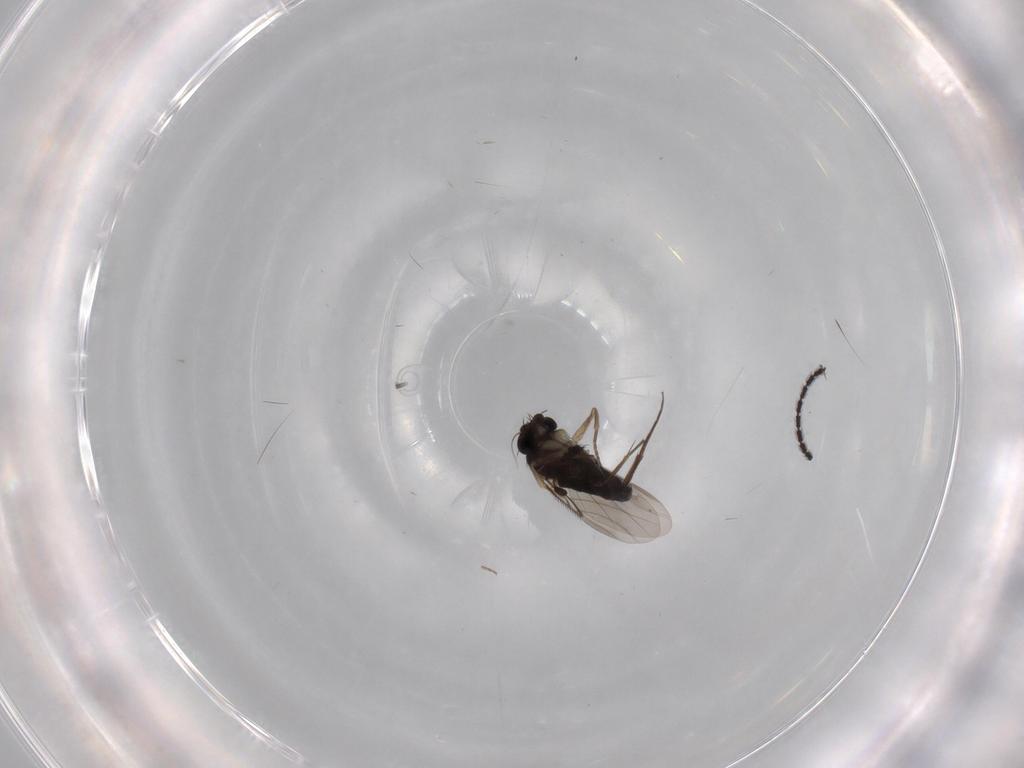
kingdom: Animalia
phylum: Arthropoda
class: Insecta
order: Diptera
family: Phoridae
